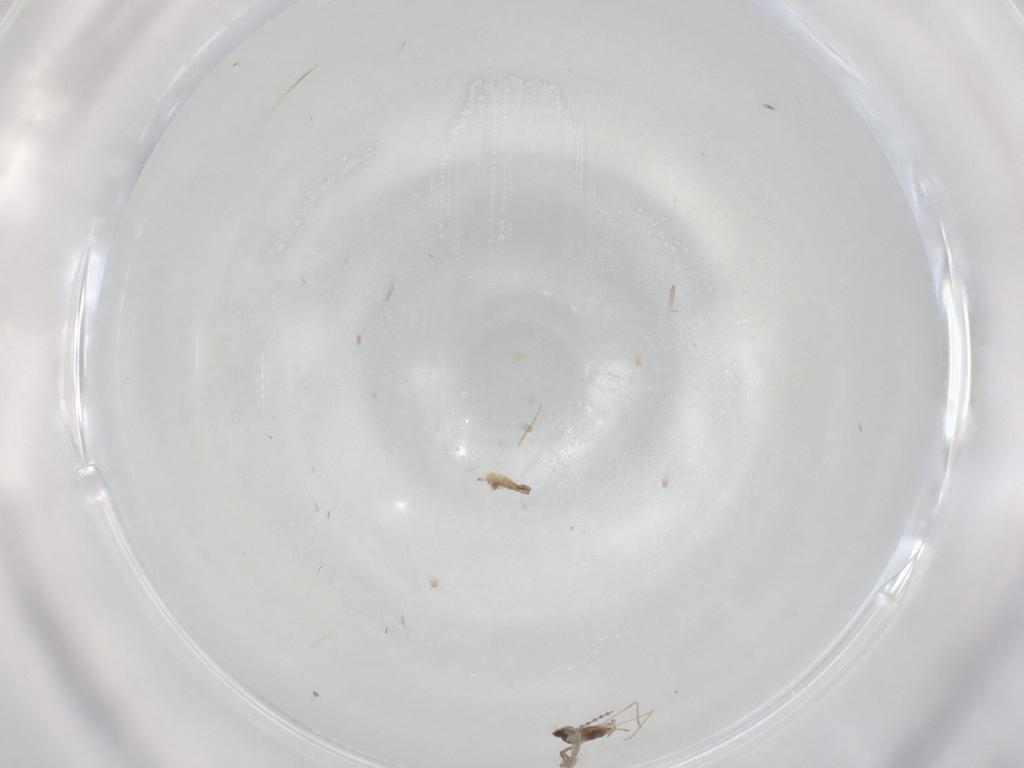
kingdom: Animalia
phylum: Arthropoda
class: Insecta
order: Diptera
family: Cecidomyiidae
